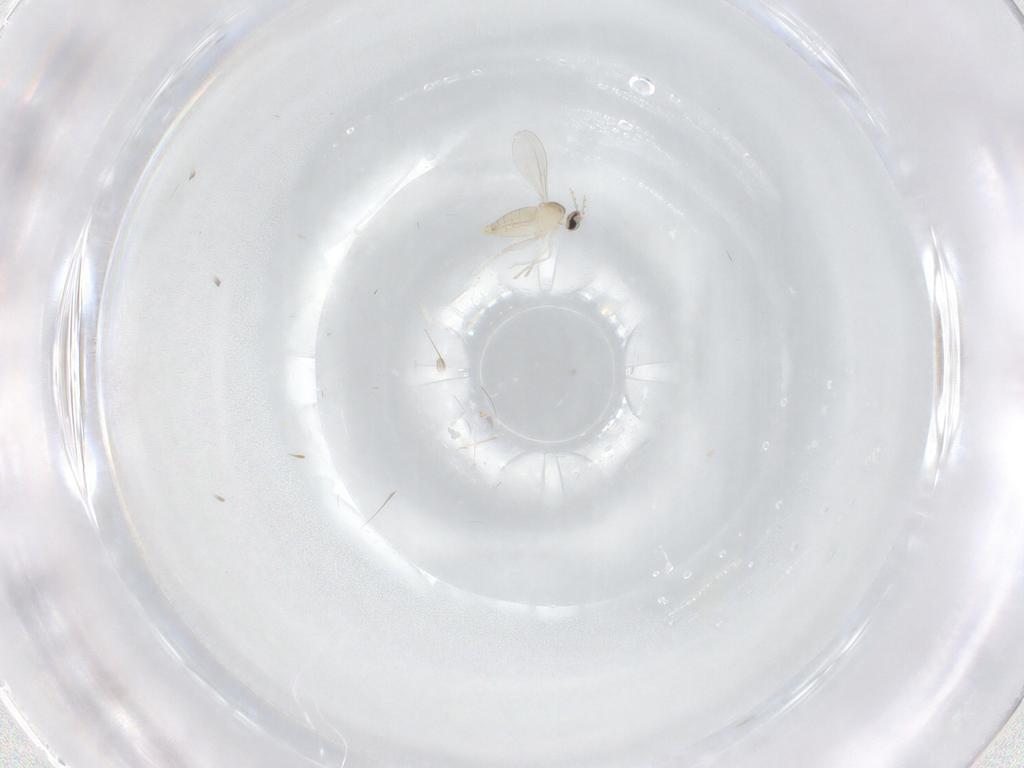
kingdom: Animalia
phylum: Arthropoda
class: Insecta
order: Diptera
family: Cecidomyiidae
